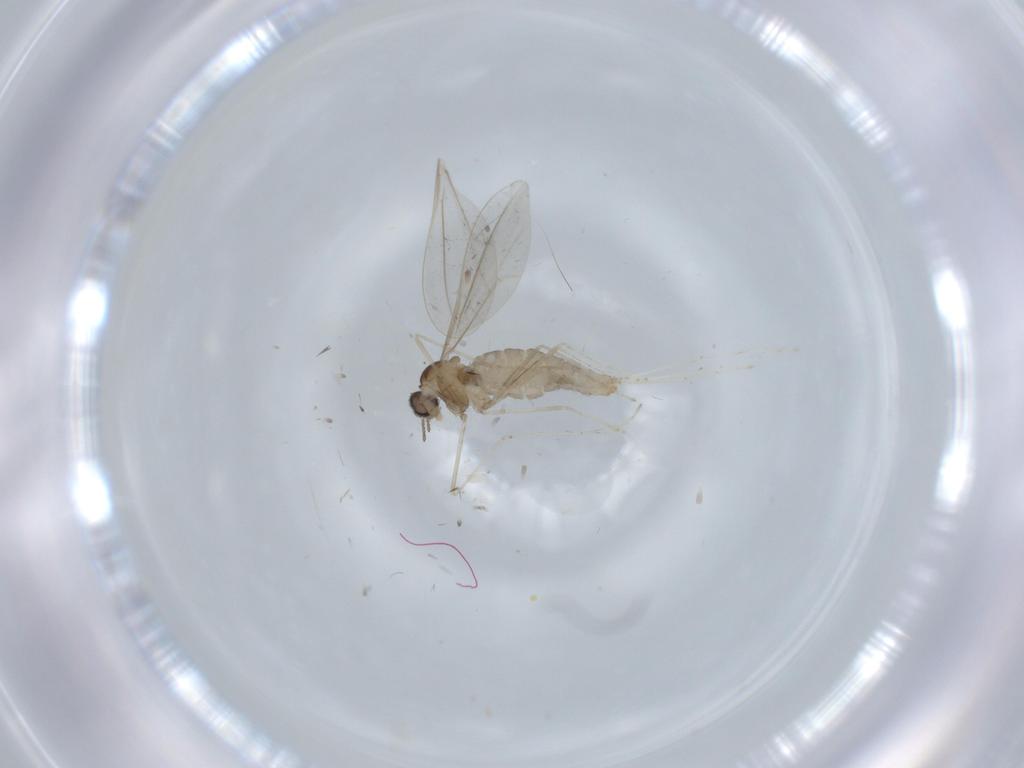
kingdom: Animalia
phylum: Arthropoda
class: Insecta
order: Diptera
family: Cecidomyiidae
